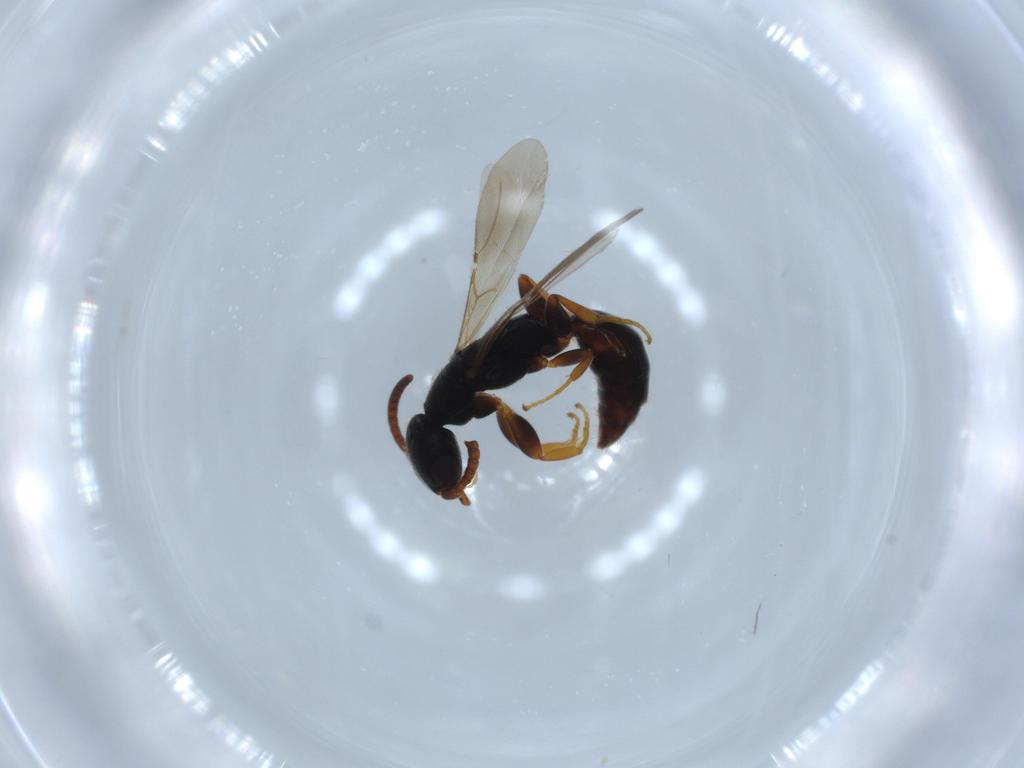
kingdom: Animalia
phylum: Arthropoda
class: Insecta
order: Hymenoptera
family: Bethylidae
